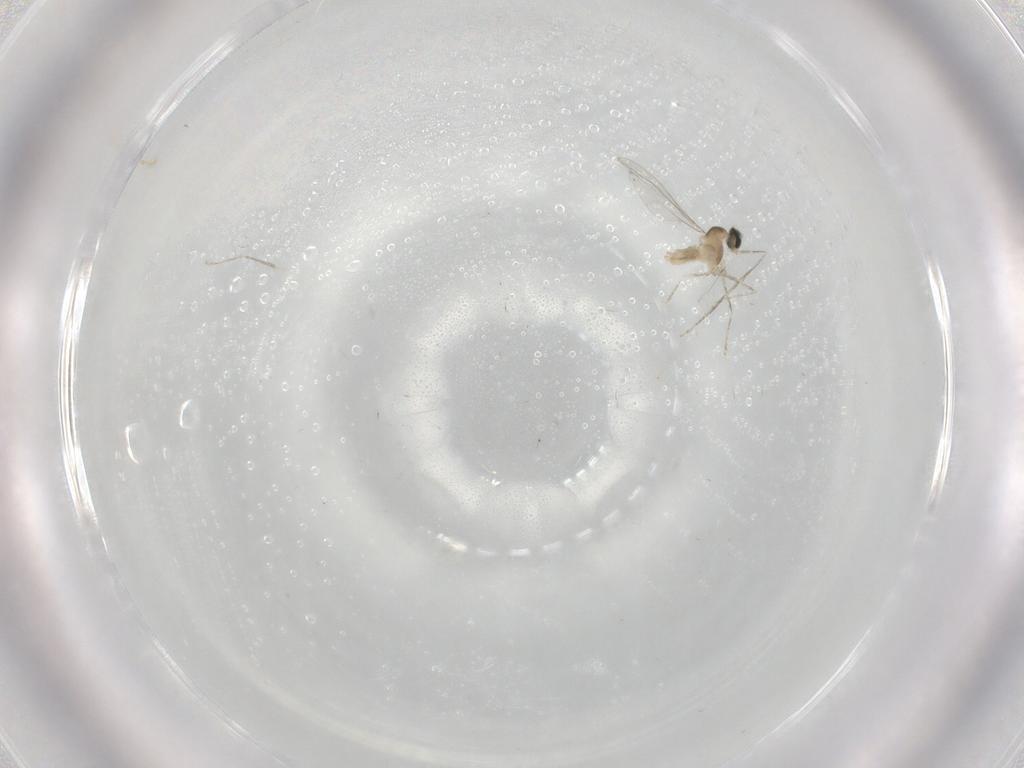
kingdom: Animalia
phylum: Arthropoda
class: Insecta
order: Diptera
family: Cecidomyiidae
